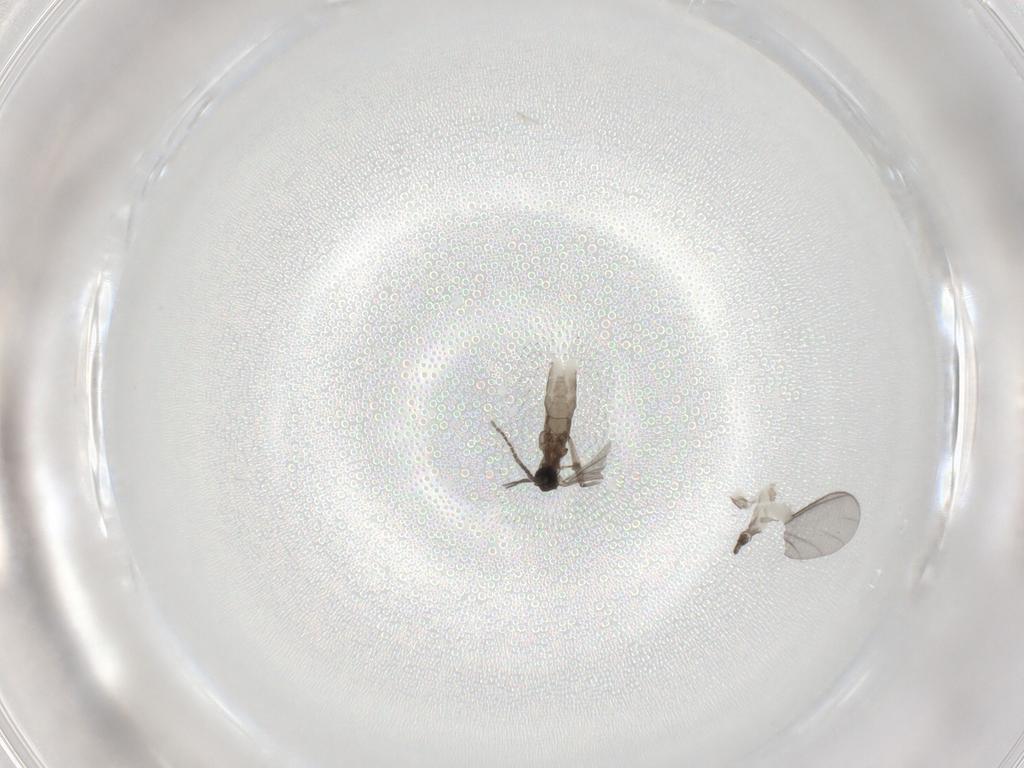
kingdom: Animalia
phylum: Arthropoda
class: Insecta
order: Diptera
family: Sciaridae
